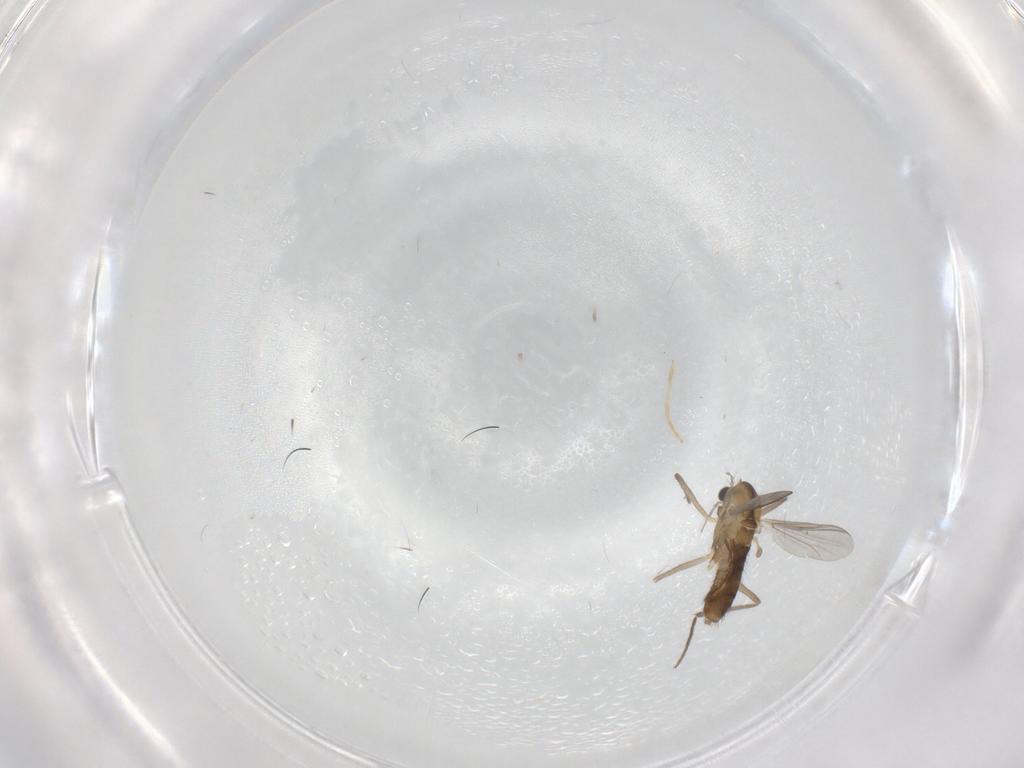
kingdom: Animalia
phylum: Arthropoda
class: Insecta
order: Diptera
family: Chironomidae
